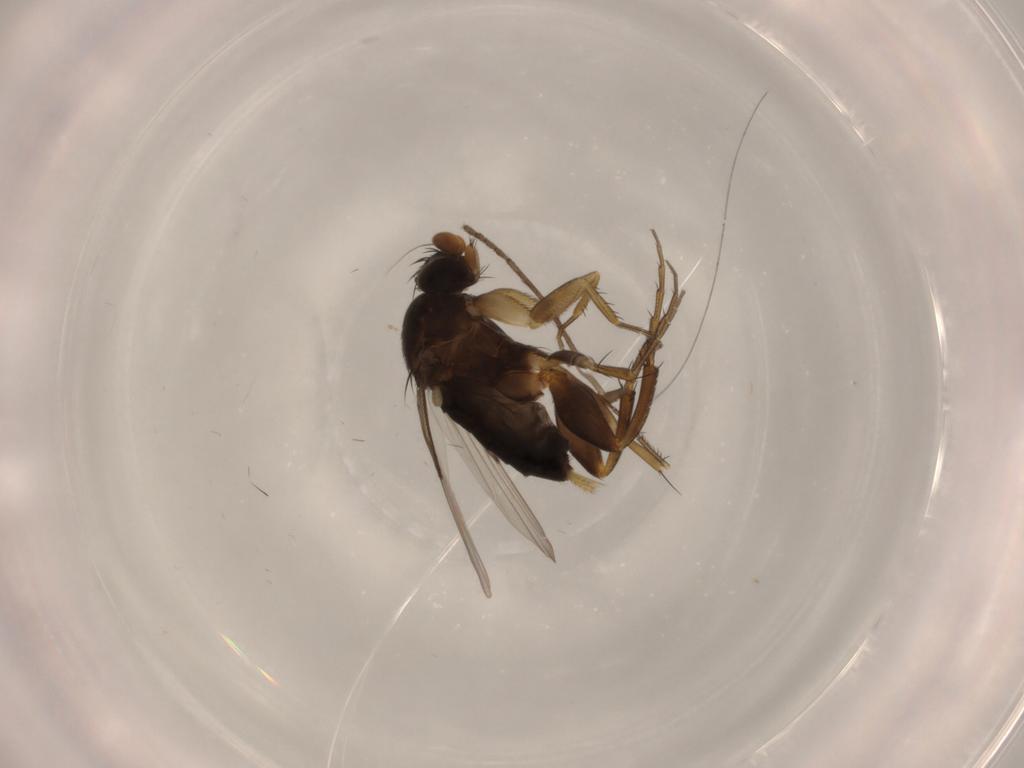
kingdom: Animalia
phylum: Arthropoda
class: Insecta
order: Diptera
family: Phoridae
